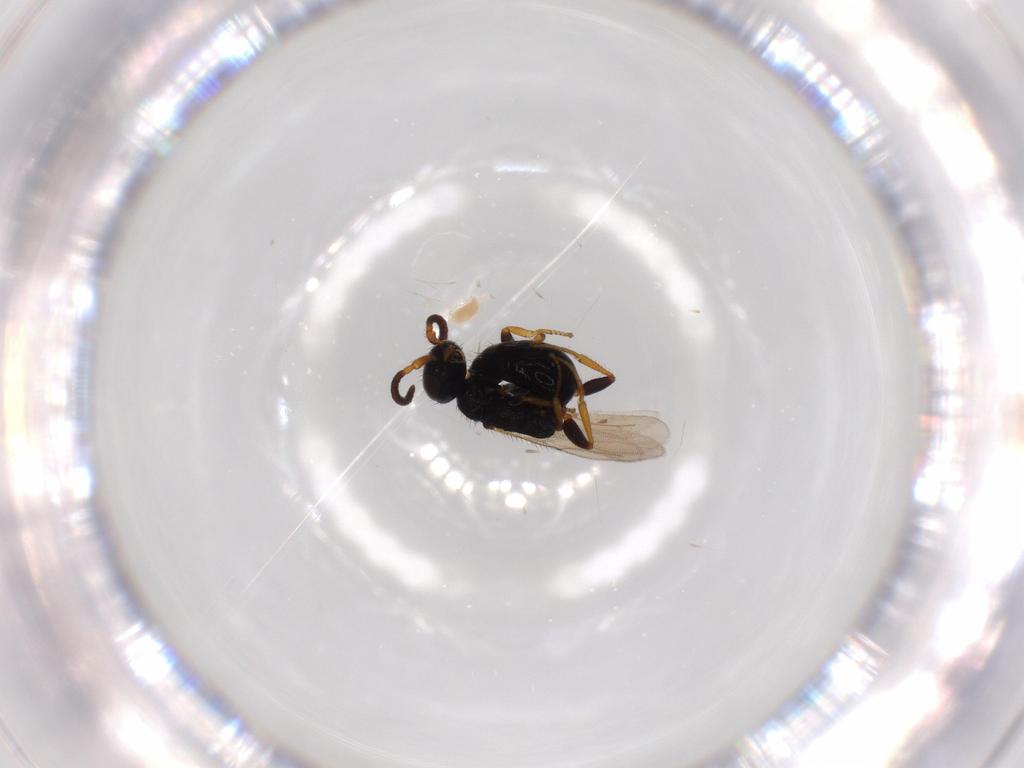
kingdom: Animalia
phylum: Arthropoda
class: Insecta
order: Hymenoptera
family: Bethylidae
